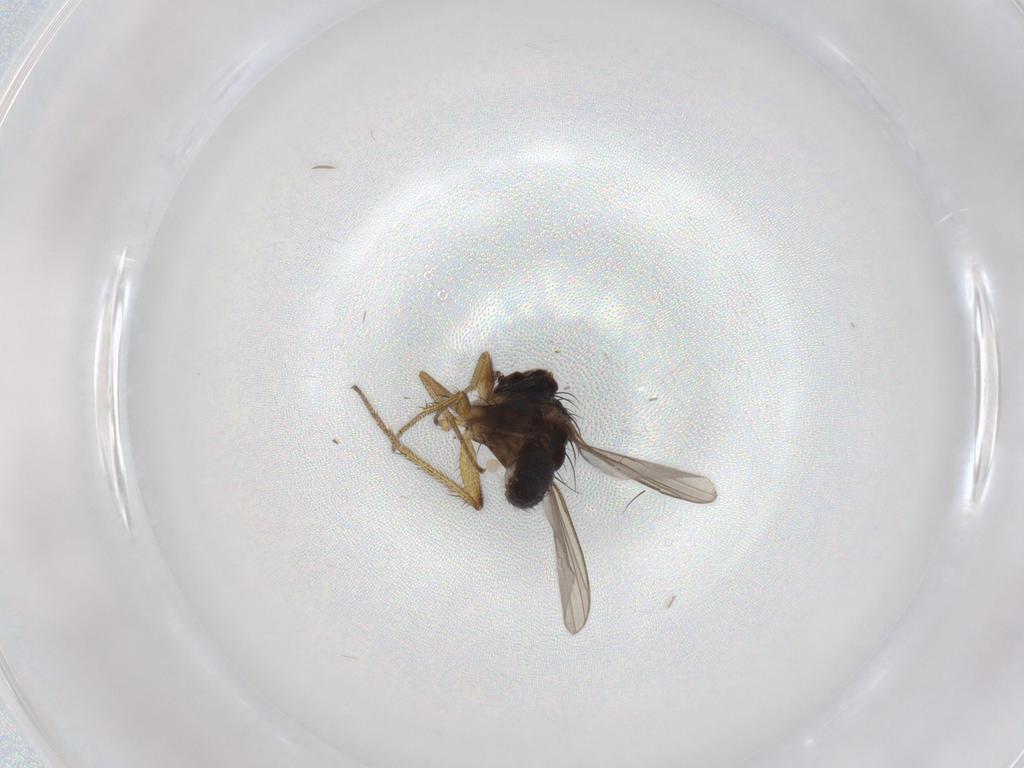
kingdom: Animalia
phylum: Arthropoda
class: Insecta
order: Diptera
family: Dolichopodidae
